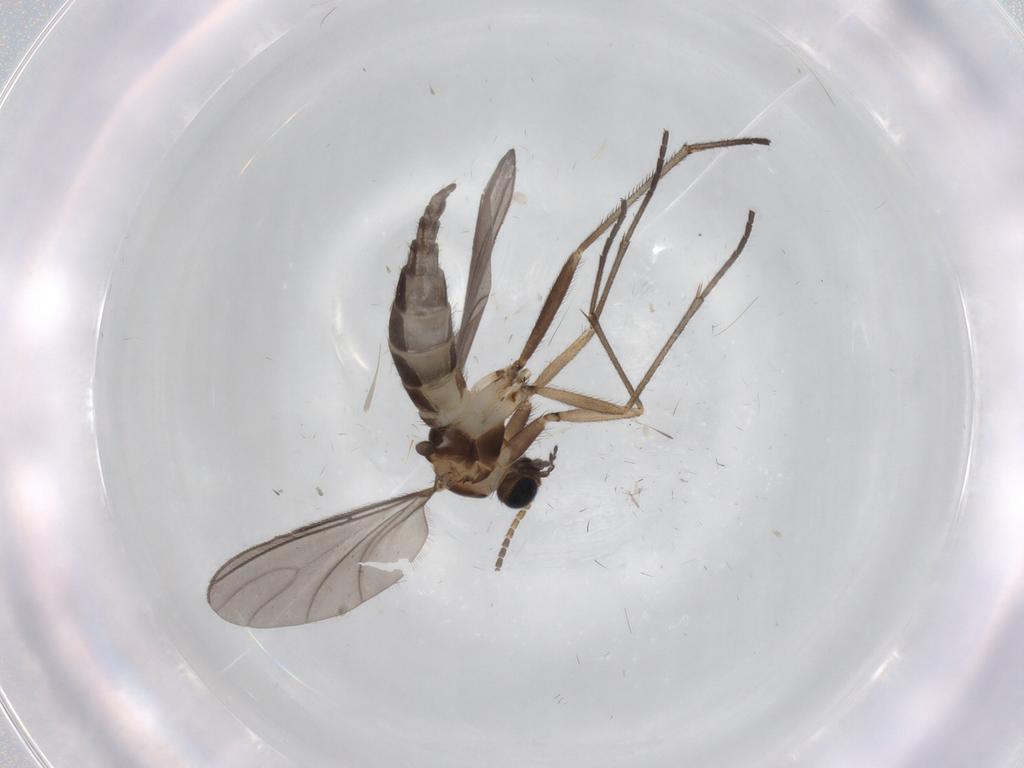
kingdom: Animalia
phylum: Arthropoda
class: Insecta
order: Diptera
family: Sciaridae
